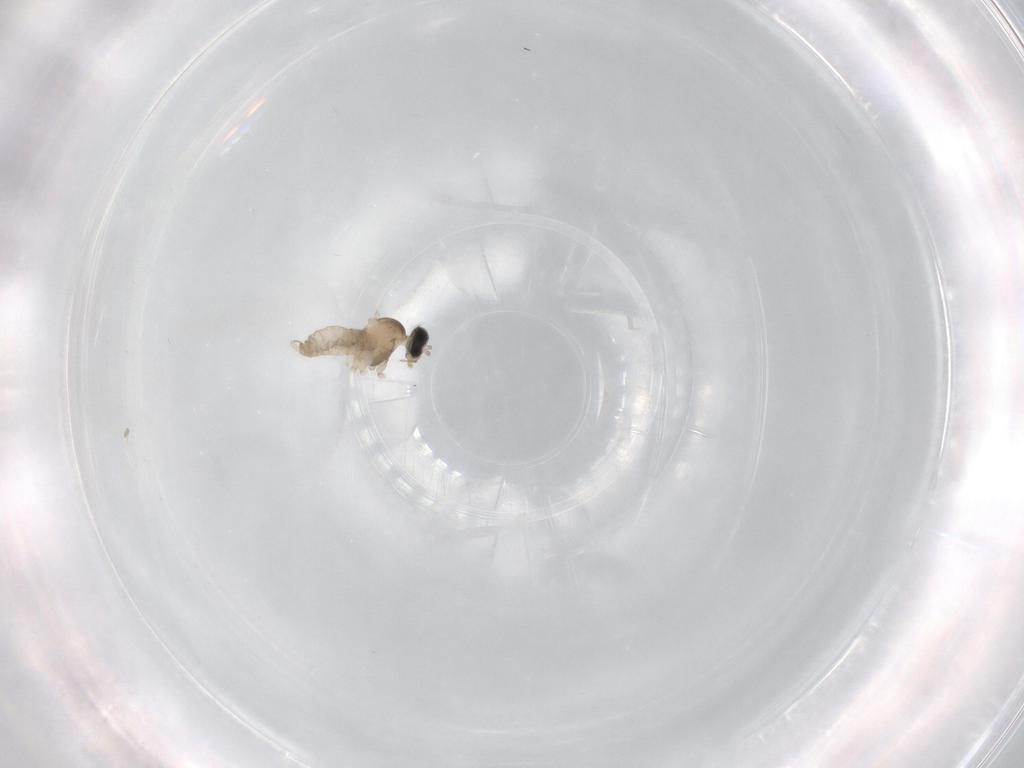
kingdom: Animalia
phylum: Arthropoda
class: Insecta
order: Diptera
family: Cecidomyiidae
